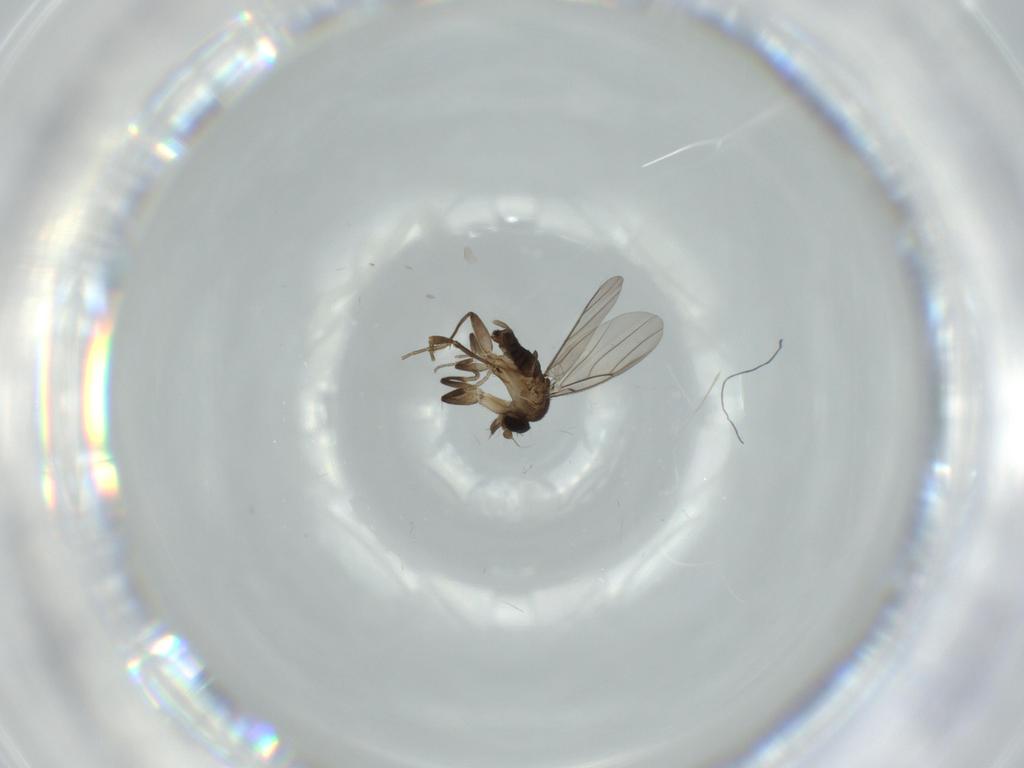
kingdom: Animalia
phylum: Arthropoda
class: Insecta
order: Diptera
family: Phoridae
